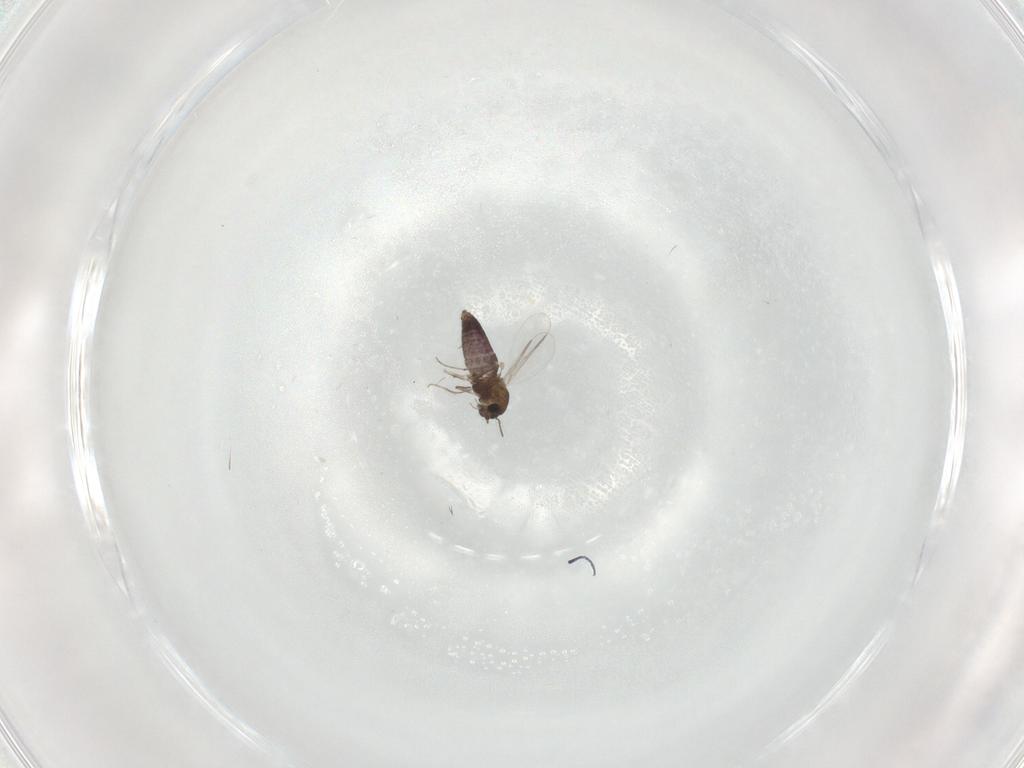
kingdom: Animalia
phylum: Arthropoda
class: Insecta
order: Diptera
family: Chironomidae
